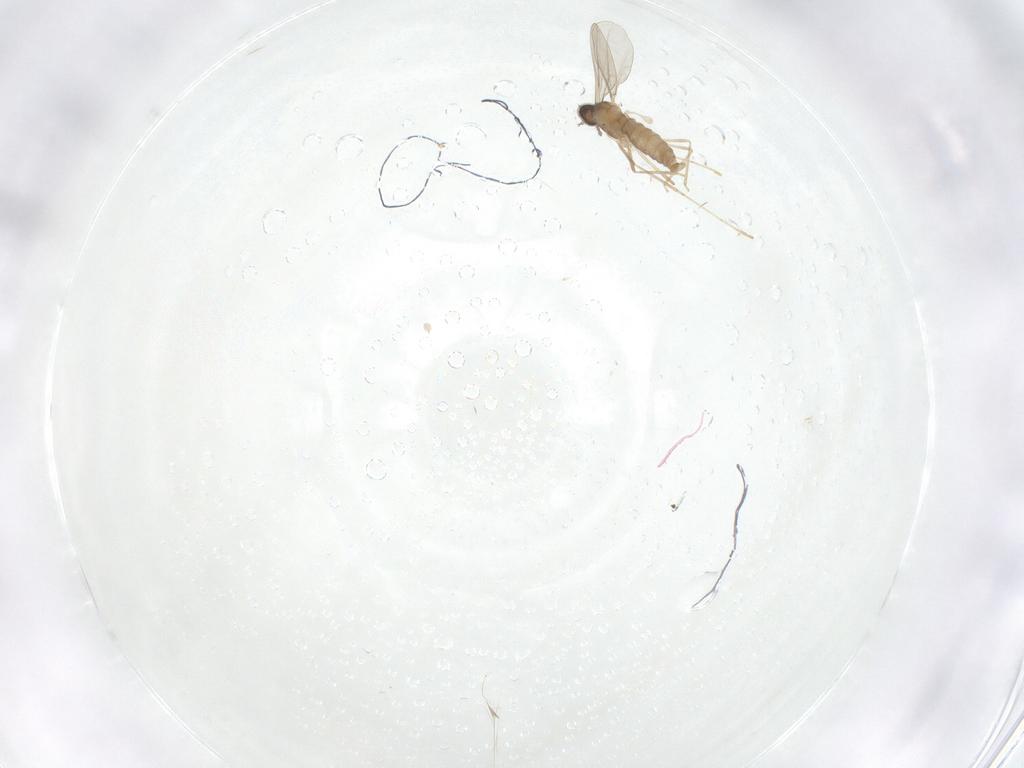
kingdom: Animalia
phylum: Arthropoda
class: Insecta
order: Diptera
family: Cecidomyiidae
